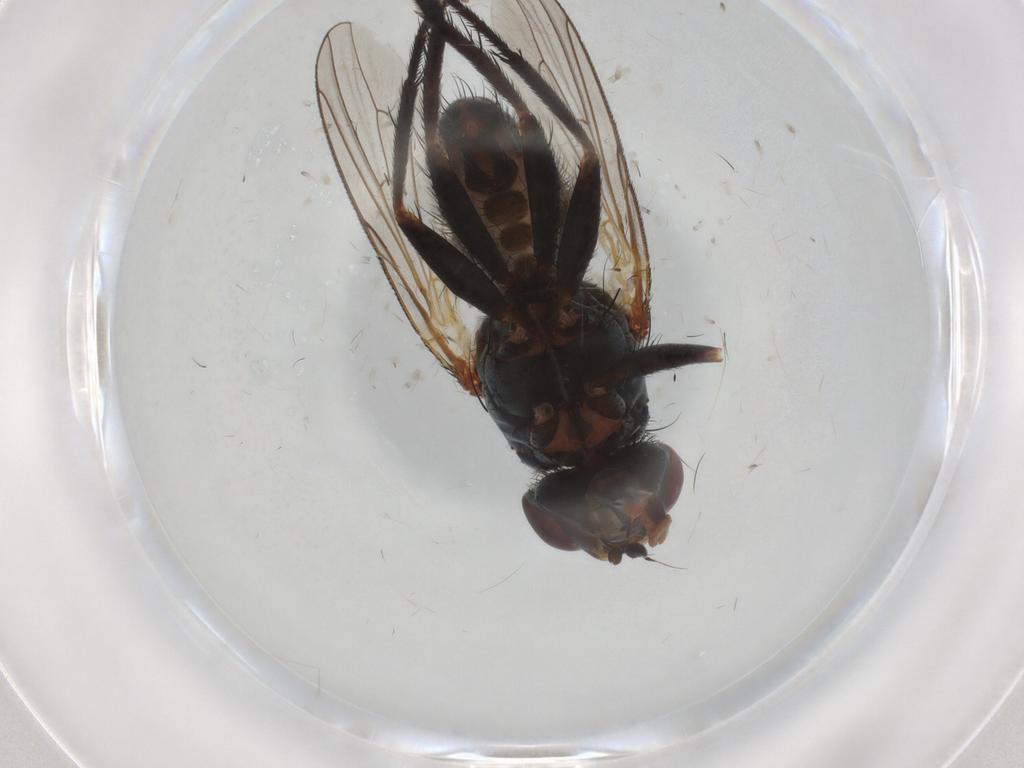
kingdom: Animalia
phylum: Arthropoda
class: Insecta
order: Diptera
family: Anthomyiidae
